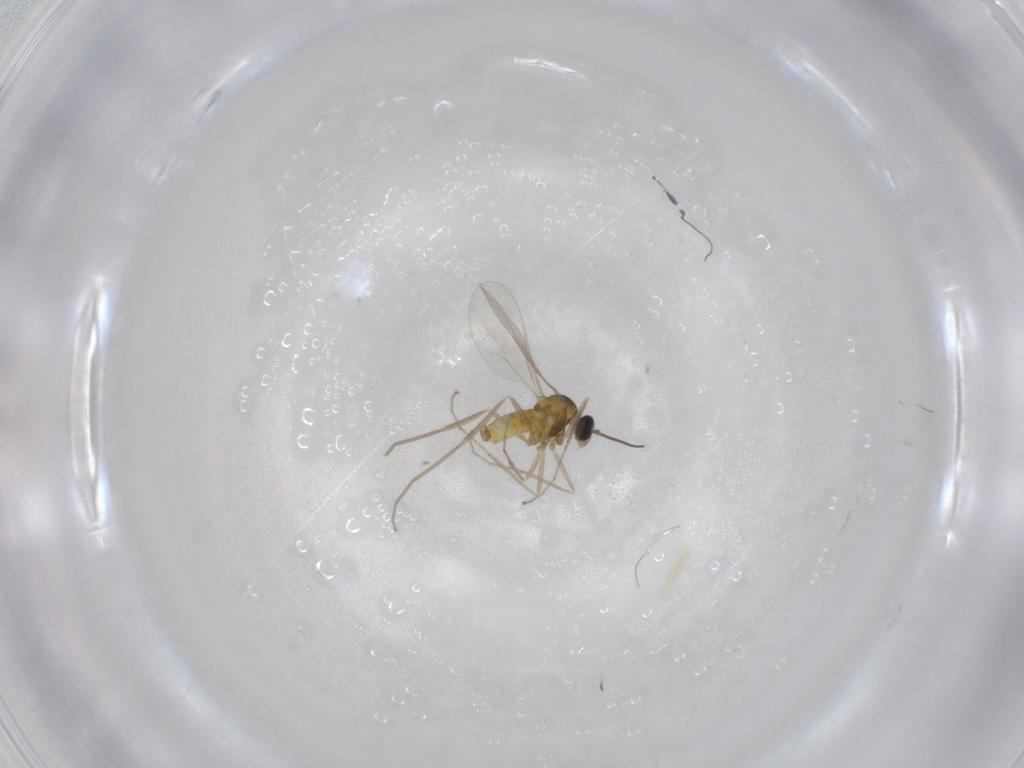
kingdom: Animalia
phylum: Arthropoda
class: Insecta
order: Diptera
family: Cecidomyiidae
